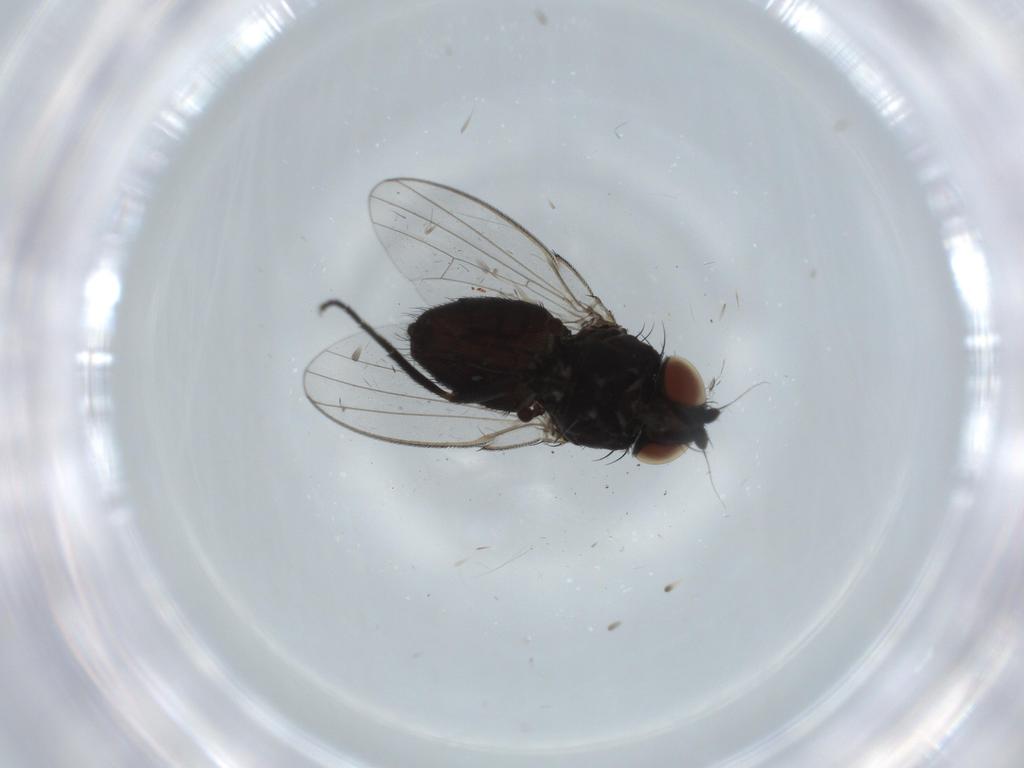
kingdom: Animalia
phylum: Arthropoda
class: Insecta
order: Diptera
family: Milichiidae
